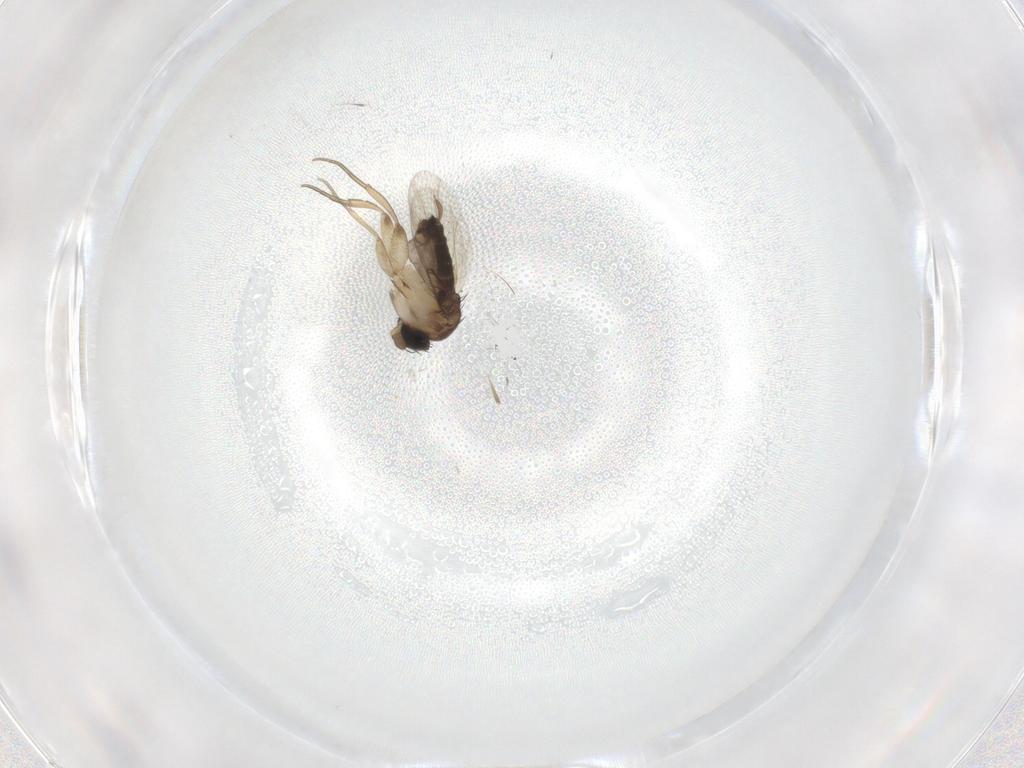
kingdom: Animalia
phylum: Arthropoda
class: Insecta
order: Diptera
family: Cecidomyiidae
